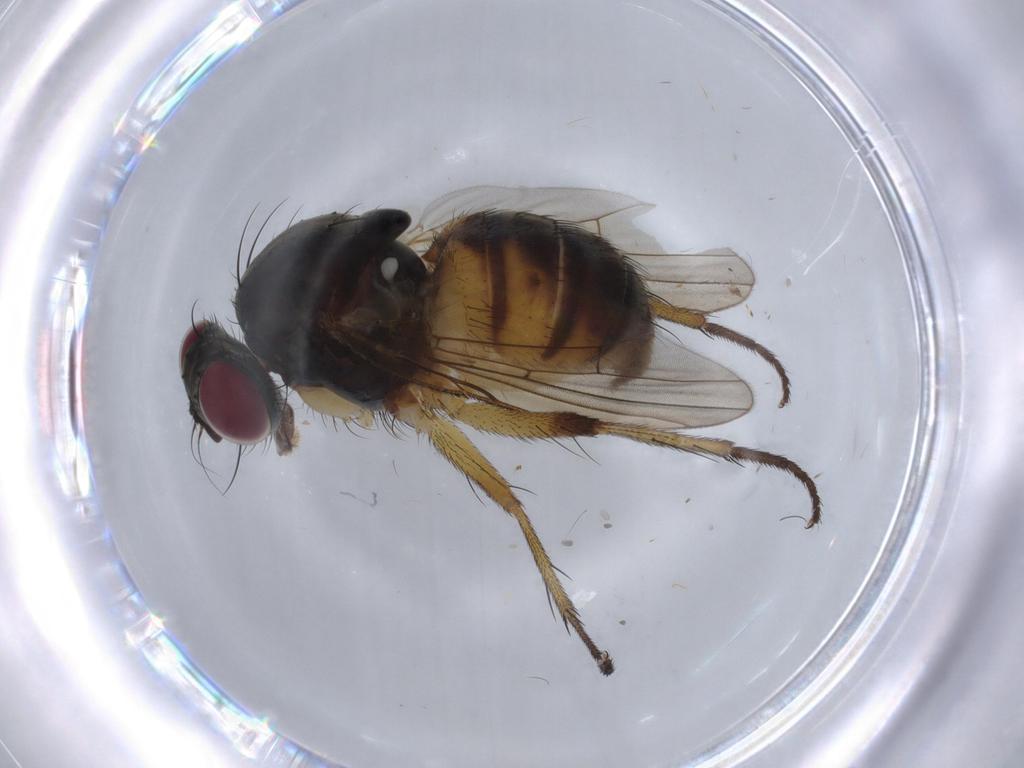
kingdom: Animalia
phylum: Arthropoda
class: Insecta
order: Diptera
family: Muscidae
